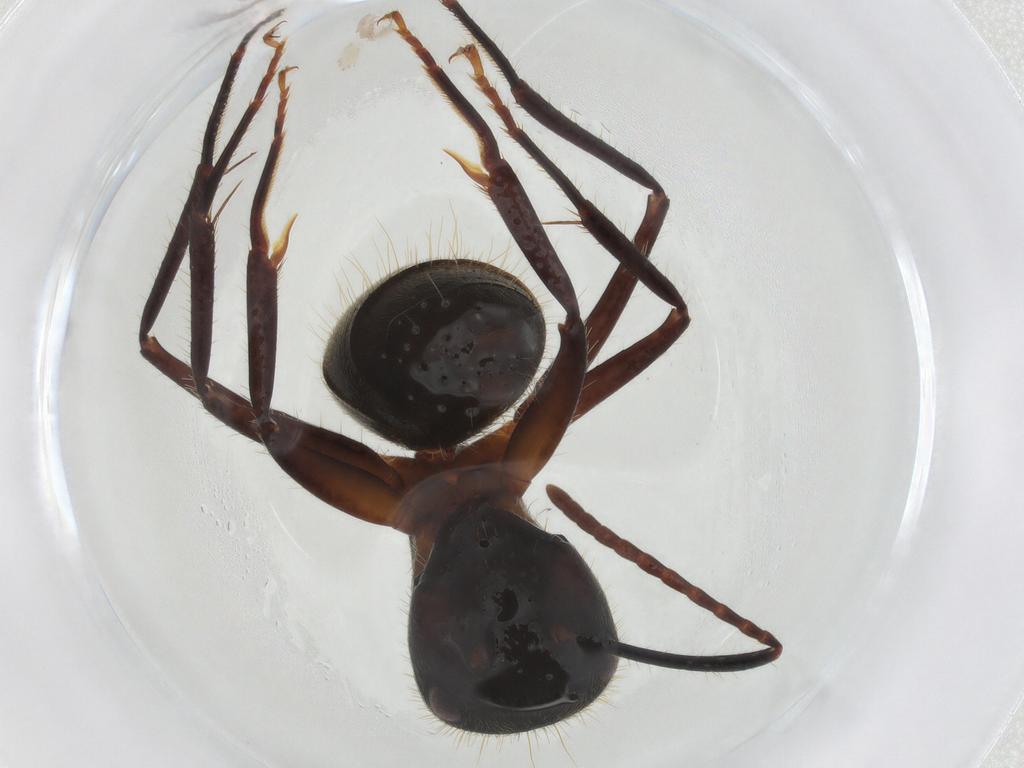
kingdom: Animalia
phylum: Arthropoda
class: Insecta
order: Hymenoptera
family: Formicidae
